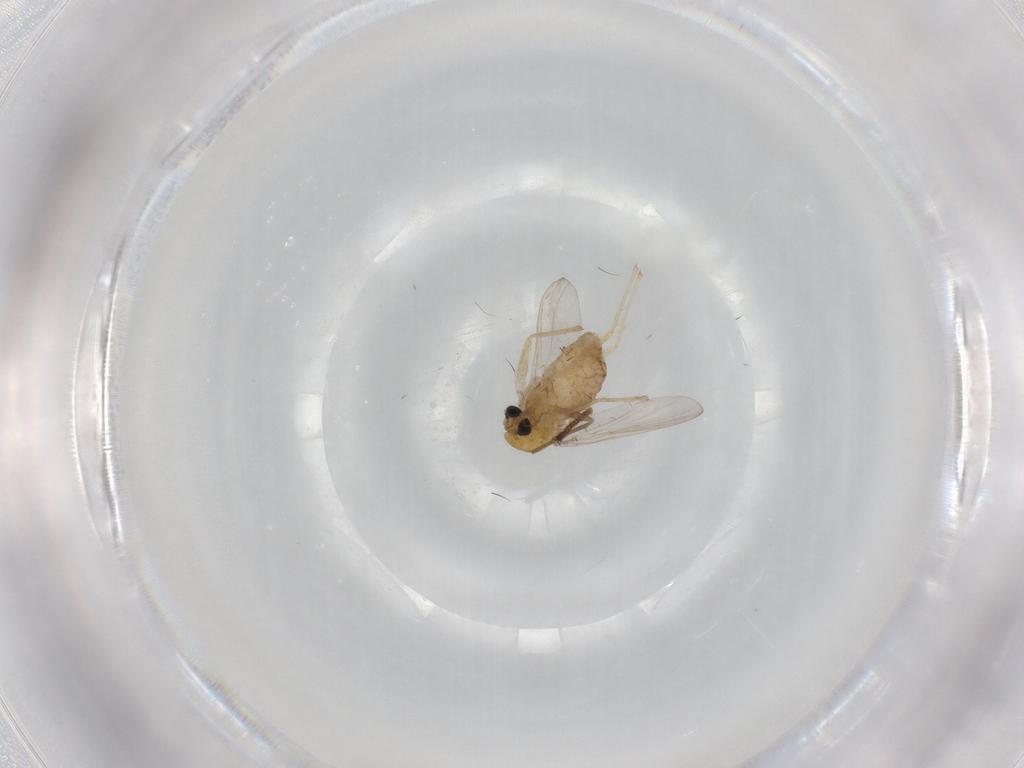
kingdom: Animalia
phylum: Arthropoda
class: Insecta
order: Diptera
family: Chironomidae
